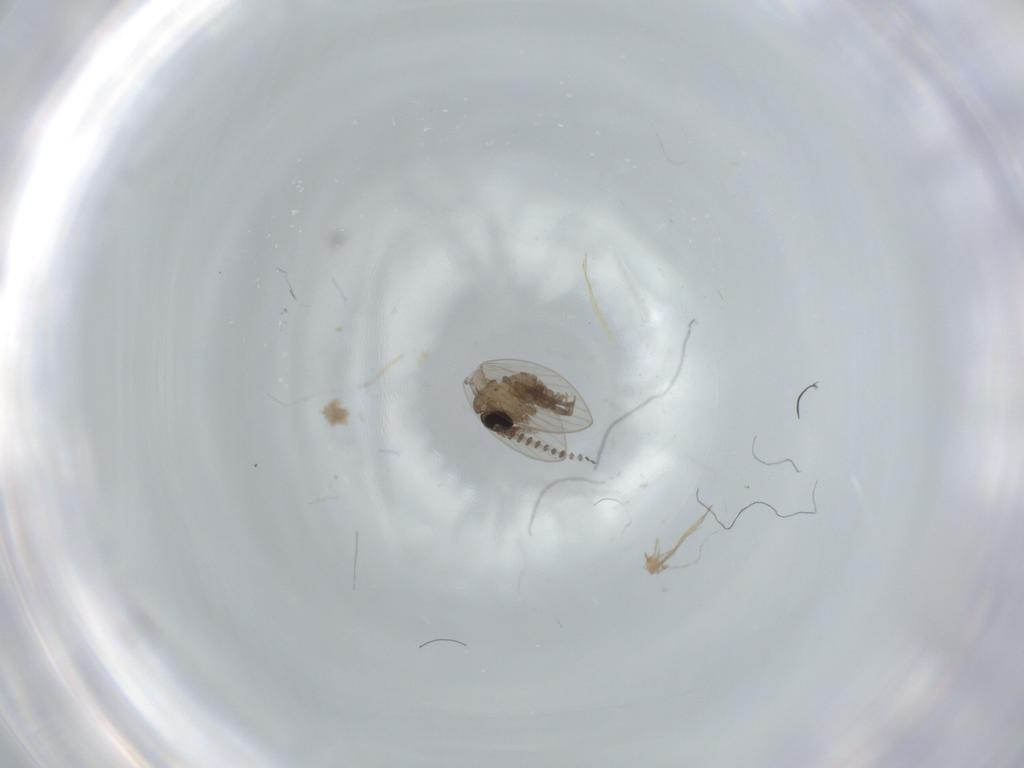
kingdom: Animalia
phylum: Arthropoda
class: Insecta
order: Diptera
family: Psychodidae
